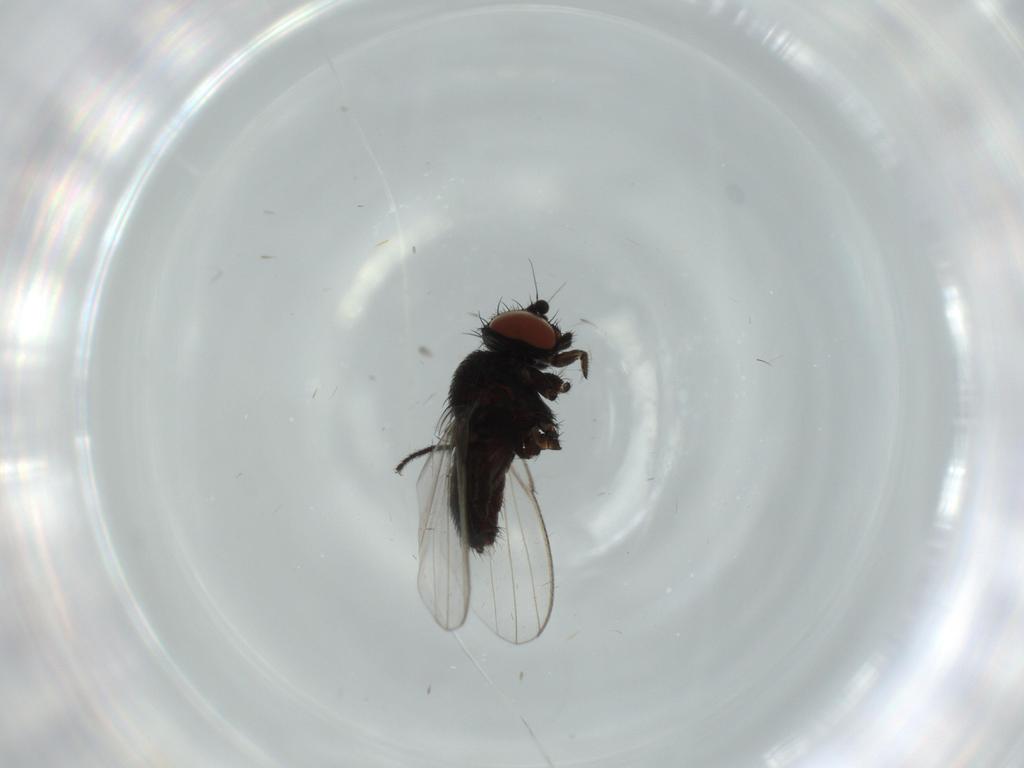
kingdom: Animalia
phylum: Arthropoda
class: Insecta
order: Diptera
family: Milichiidae
